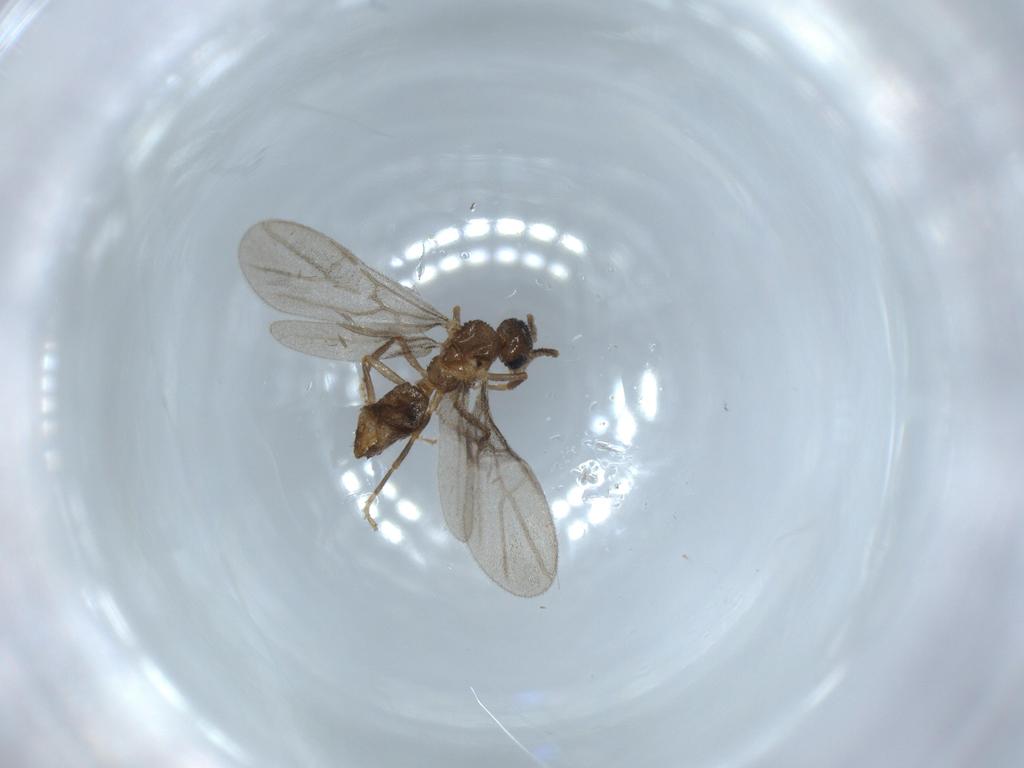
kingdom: Animalia
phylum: Arthropoda
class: Insecta
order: Hymenoptera
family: Formicidae
